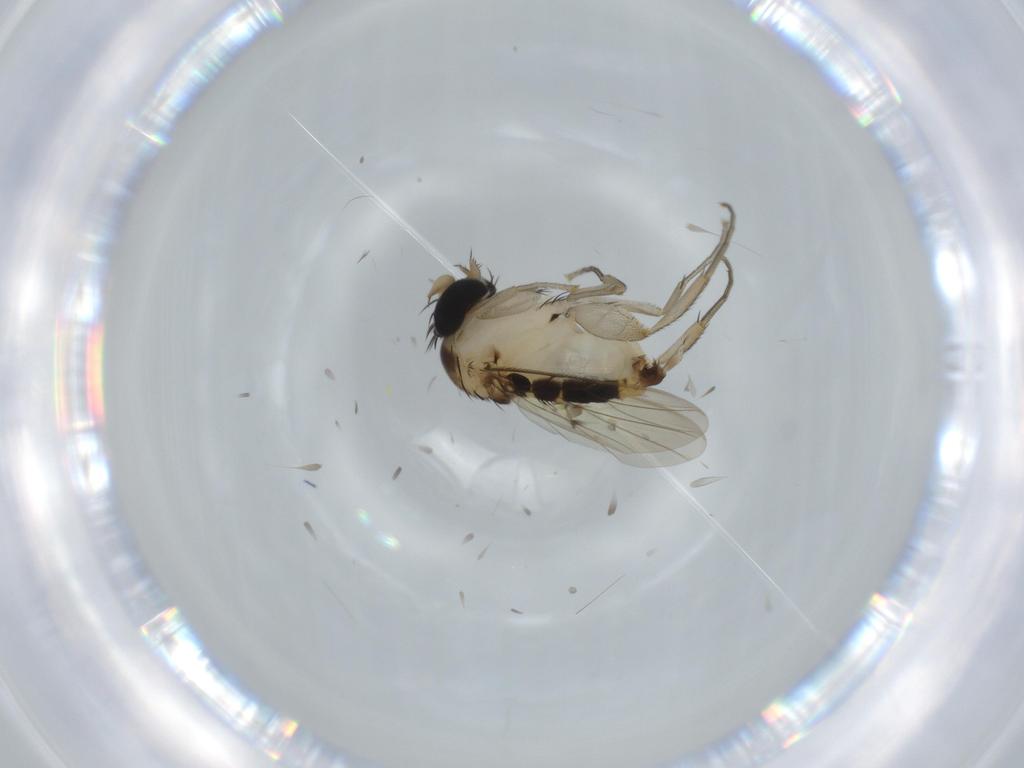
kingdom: Animalia
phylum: Arthropoda
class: Insecta
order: Diptera
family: Phoridae
